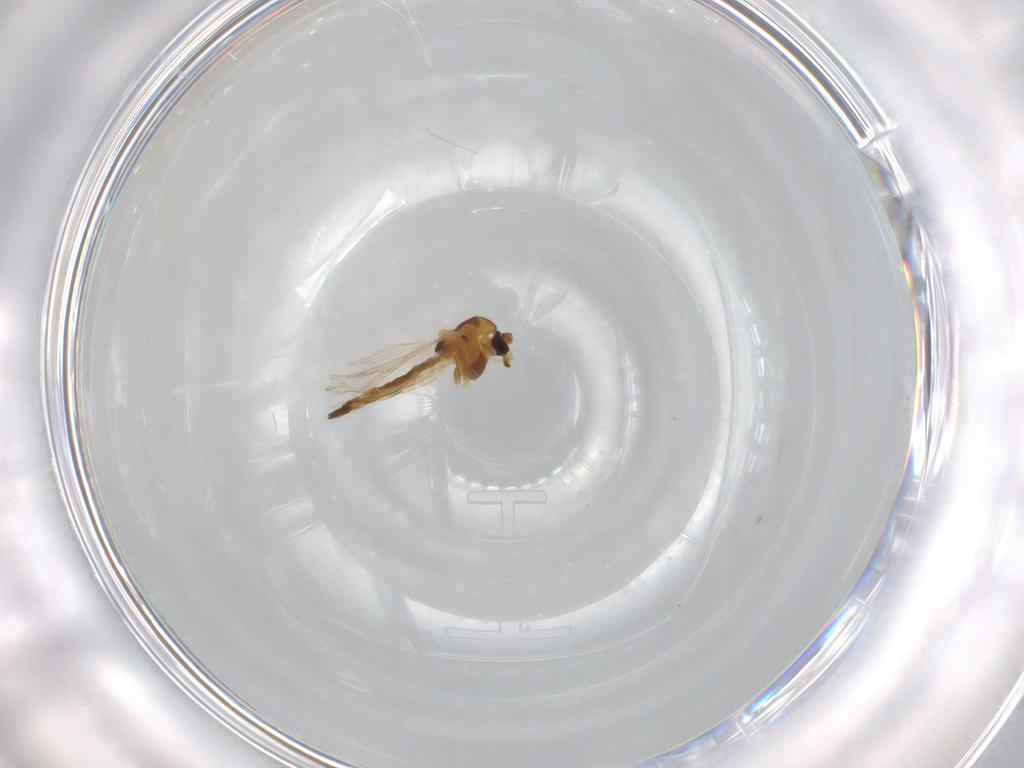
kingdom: Animalia
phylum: Arthropoda
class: Insecta
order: Diptera
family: Chironomidae
